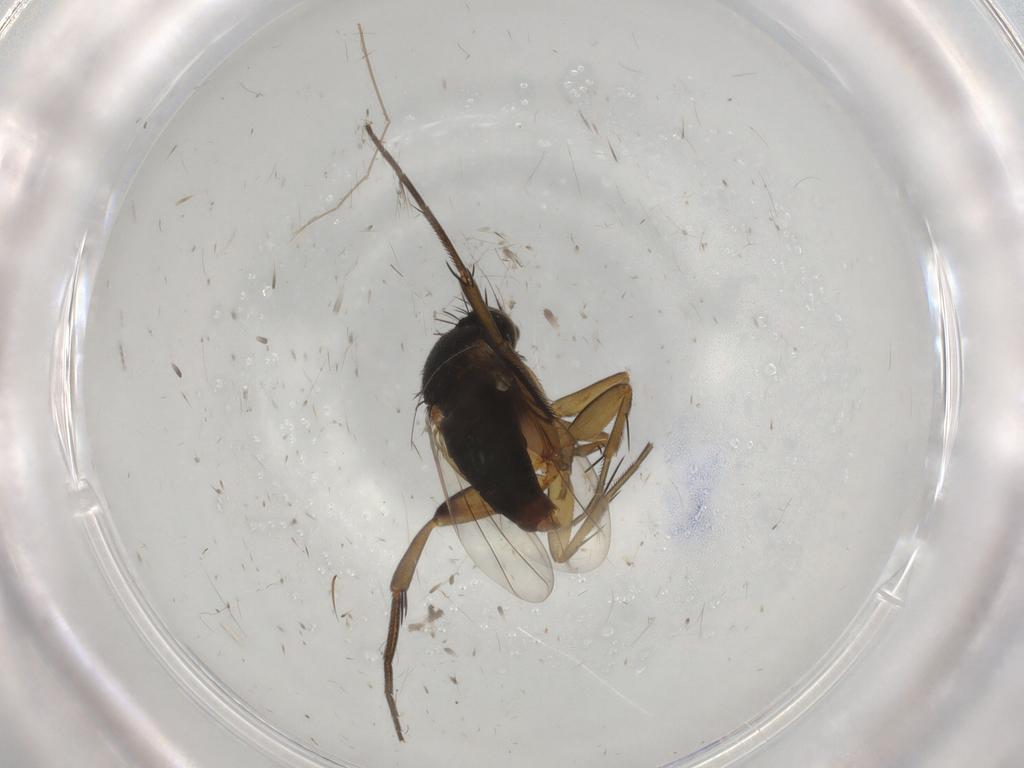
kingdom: Animalia
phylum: Arthropoda
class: Insecta
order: Diptera
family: Phoridae
